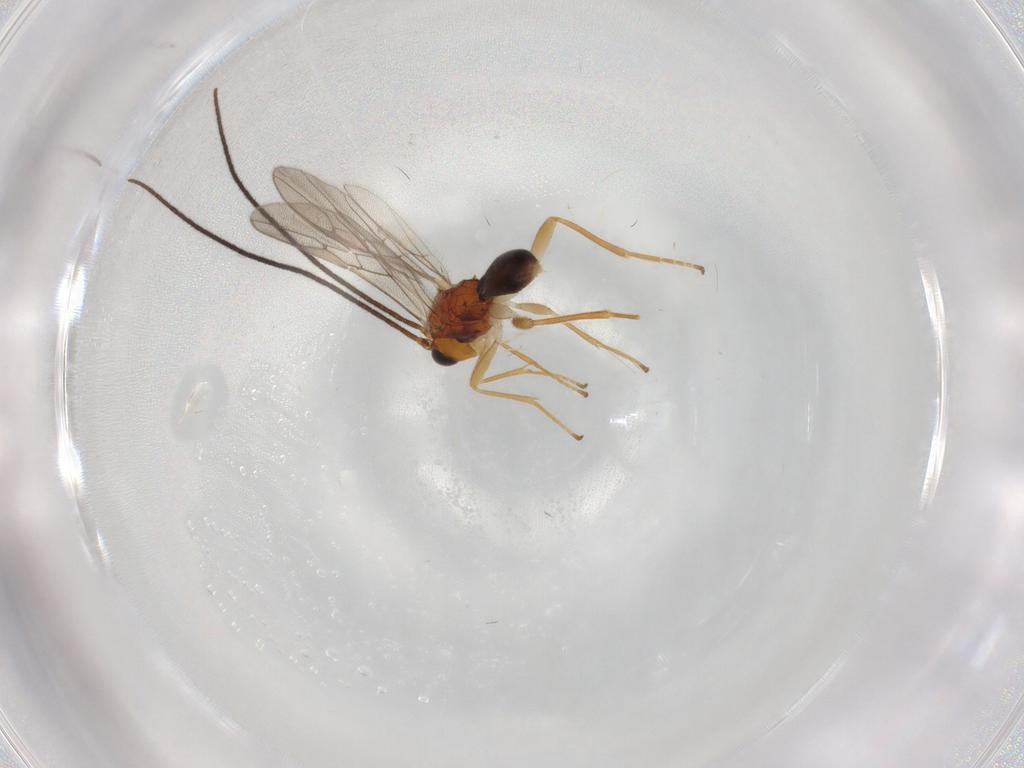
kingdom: Animalia
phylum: Arthropoda
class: Insecta
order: Hymenoptera
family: Braconidae
